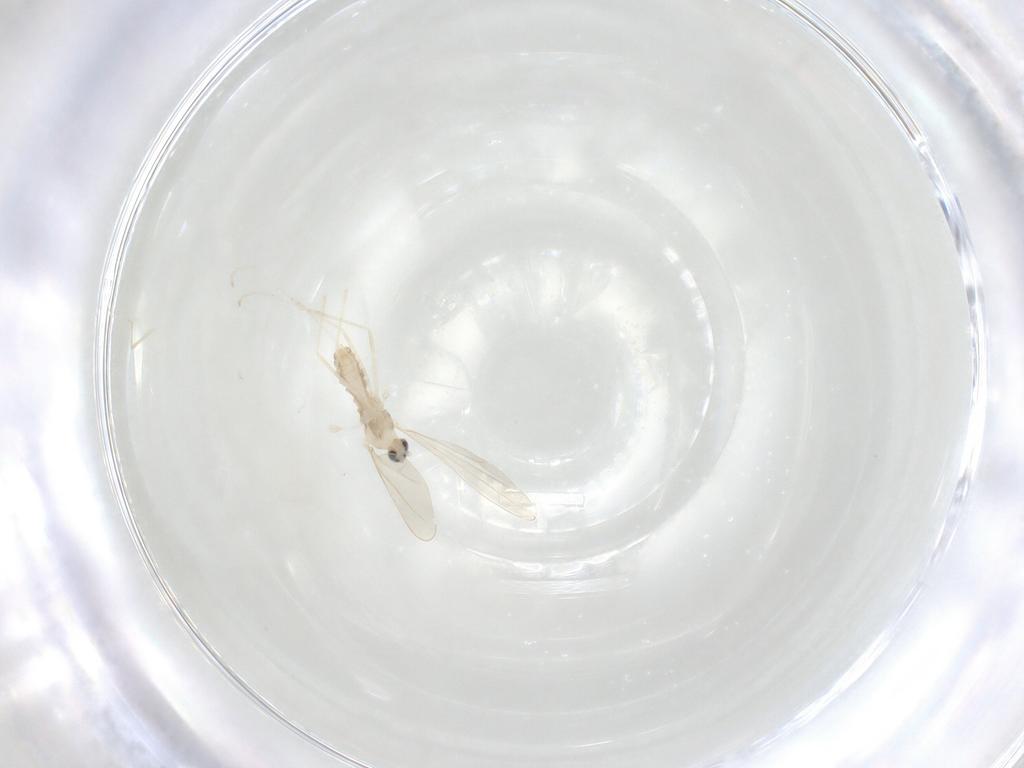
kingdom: Animalia
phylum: Arthropoda
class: Insecta
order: Diptera
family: Cecidomyiidae
